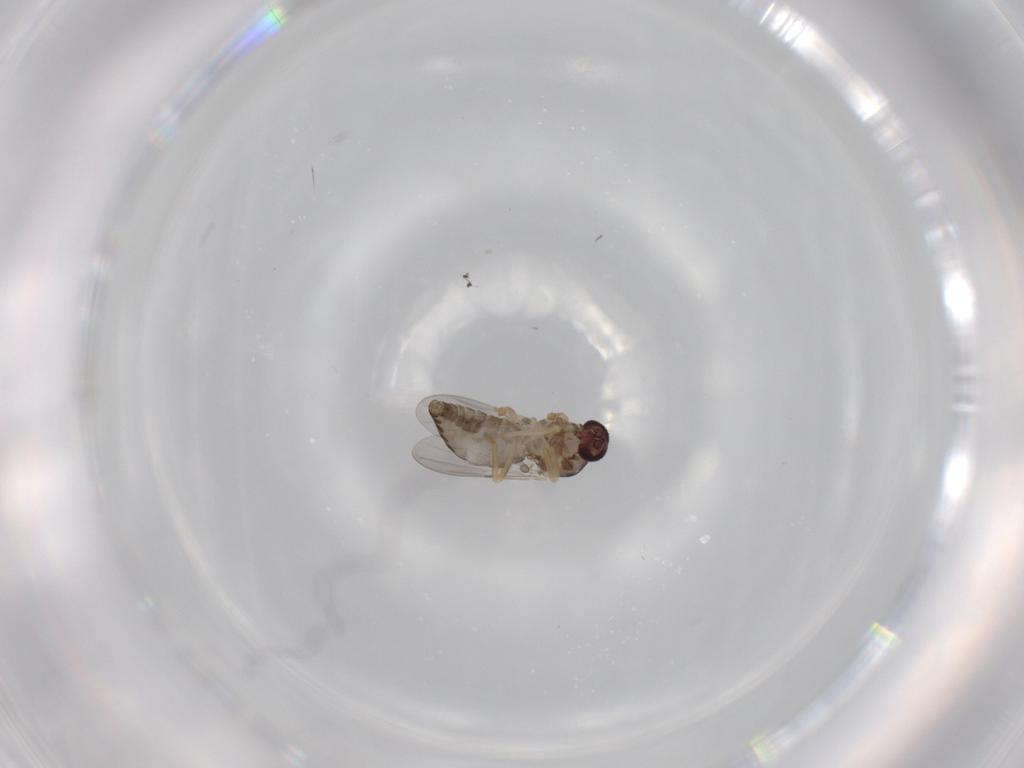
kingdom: Animalia
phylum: Arthropoda
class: Insecta
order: Diptera
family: Ceratopogonidae
